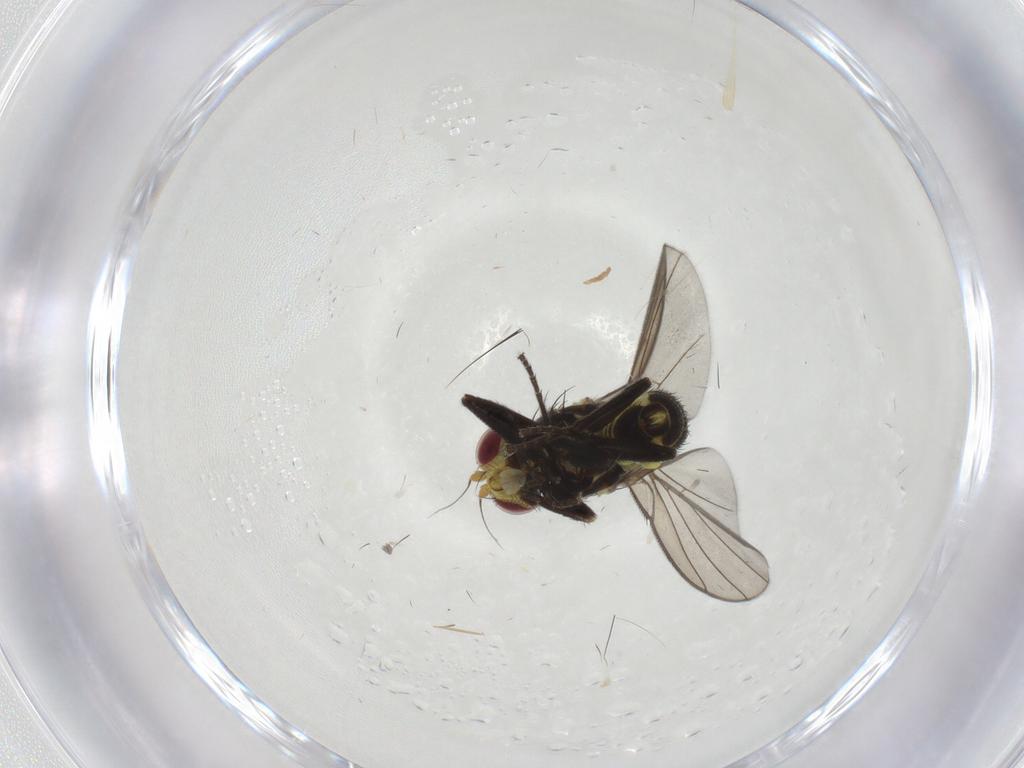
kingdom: Animalia
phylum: Arthropoda
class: Insecta
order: Diptera
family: Agromyzidae
